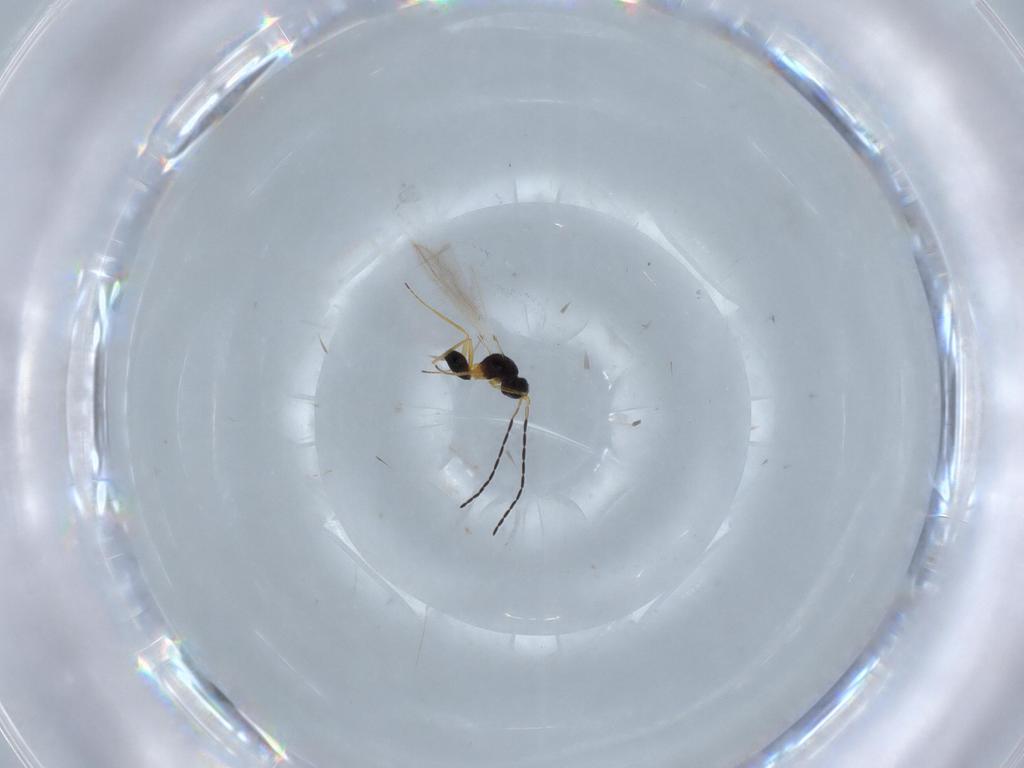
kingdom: Animalia
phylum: Arthropoda
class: Insecta
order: Hymenoptera
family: Mymaridae
